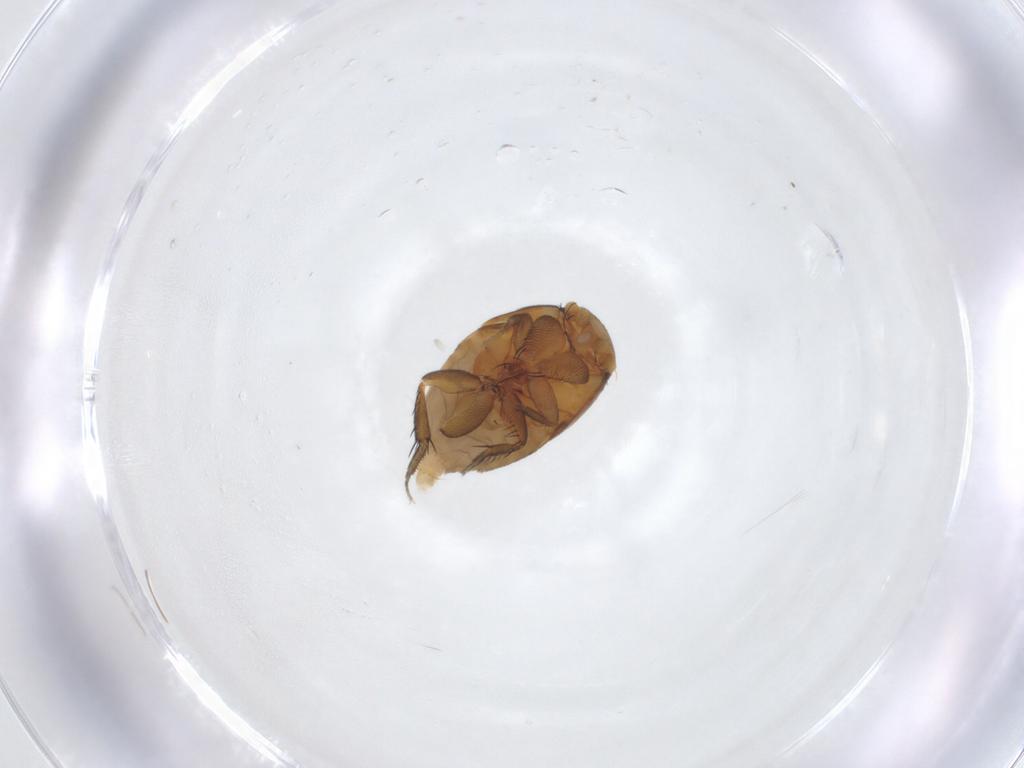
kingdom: Animalia
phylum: Arthropoda
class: Insecta
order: Diptera
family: Phoridae
